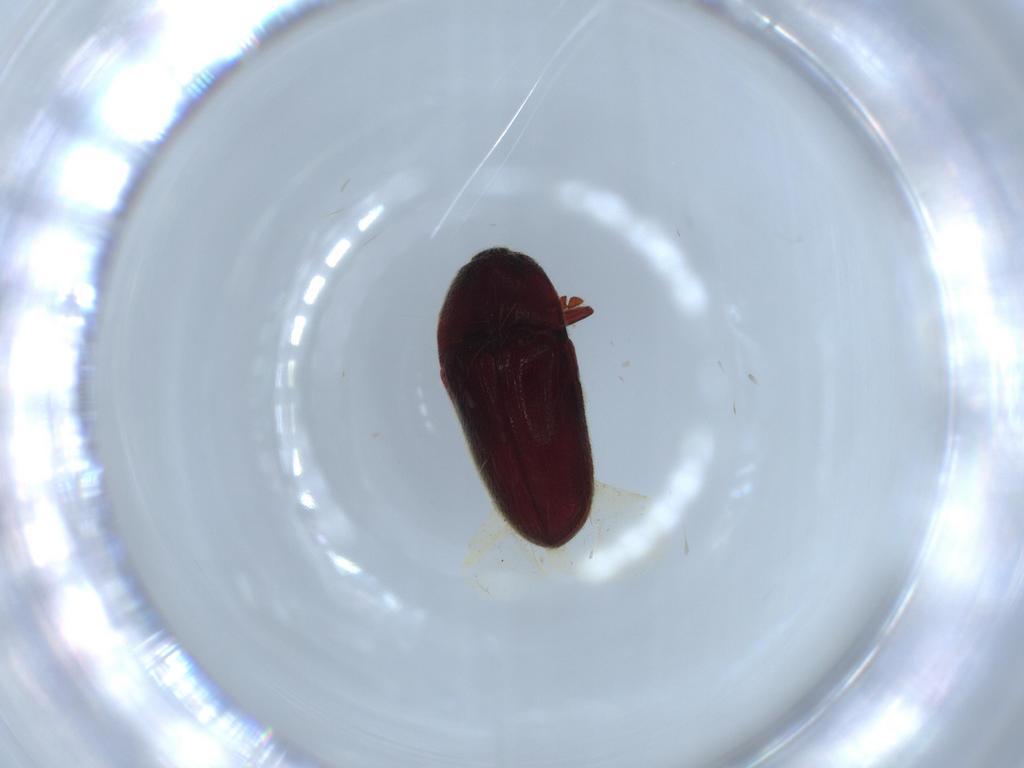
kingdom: Animalia
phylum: Arthropoda
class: Insecta
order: Coleoptera
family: Throscidae
